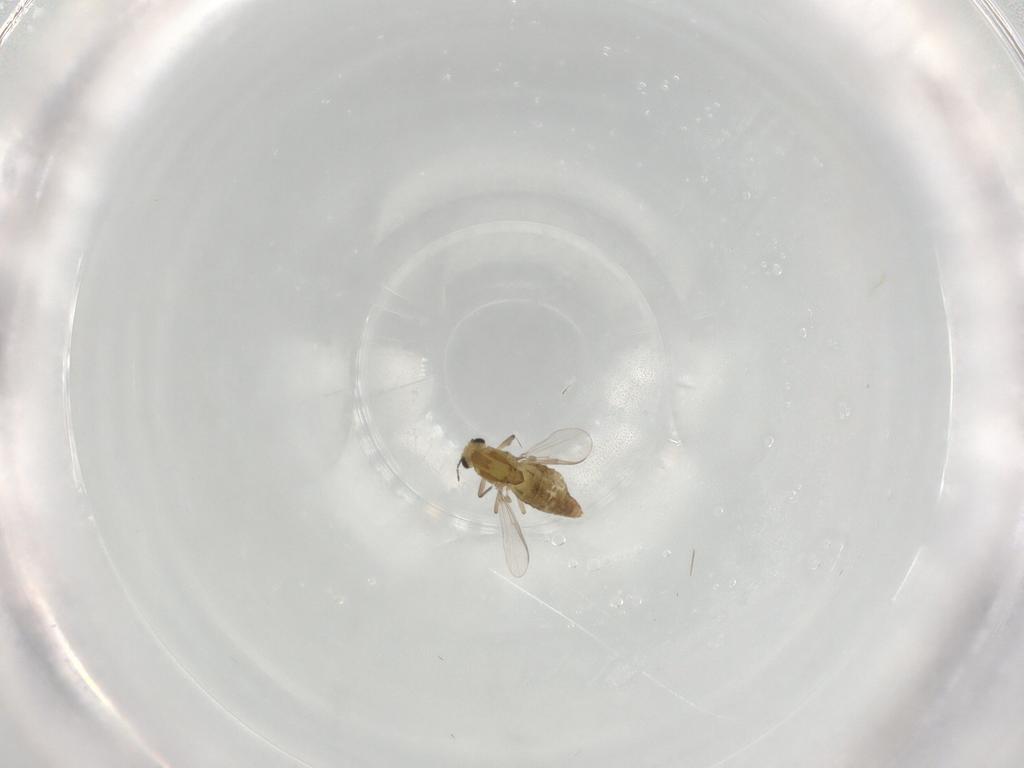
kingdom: Animalia
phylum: Arthropoda
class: Insecta
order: Diptera
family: Chironomidae
